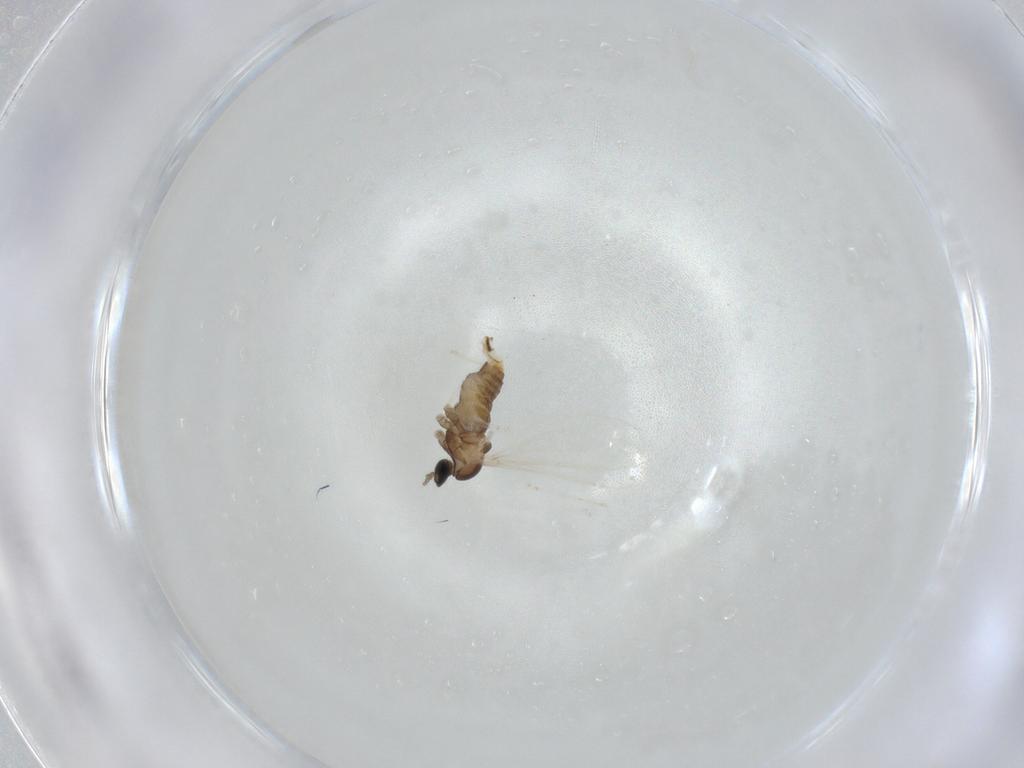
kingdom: Animalia
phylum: Arthropoda
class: Insecta
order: Diptera
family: Cecidomyiidae
